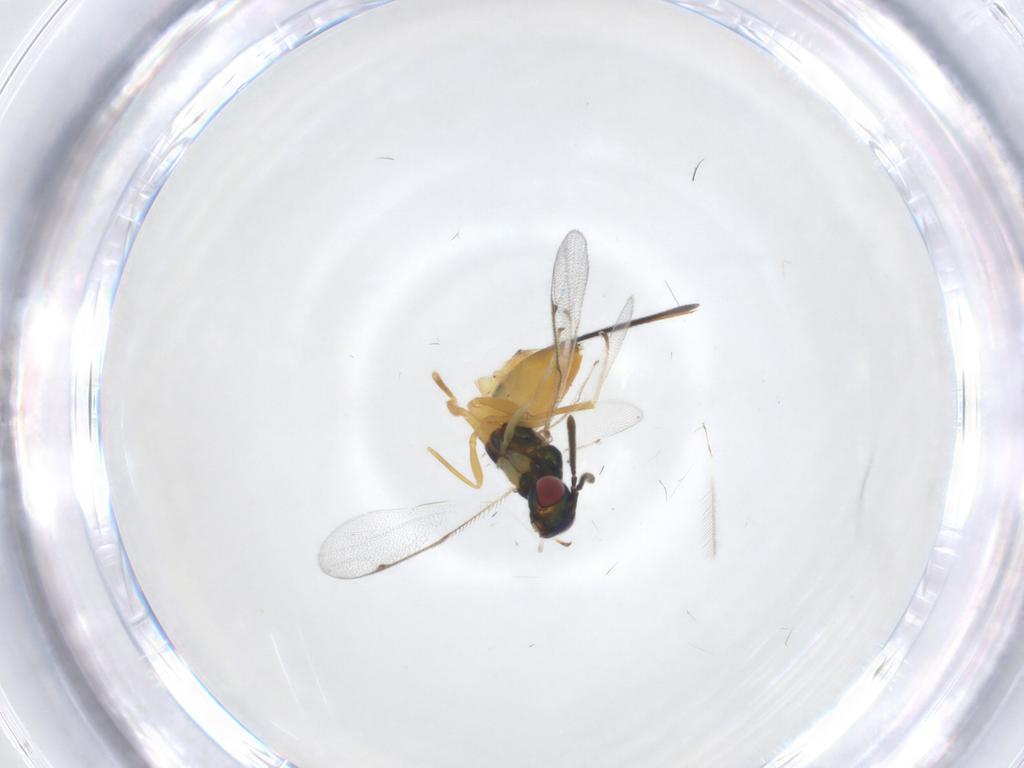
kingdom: Animalia
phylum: Arthropoda
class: Insecta
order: Hymenoptera
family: Torymidae
